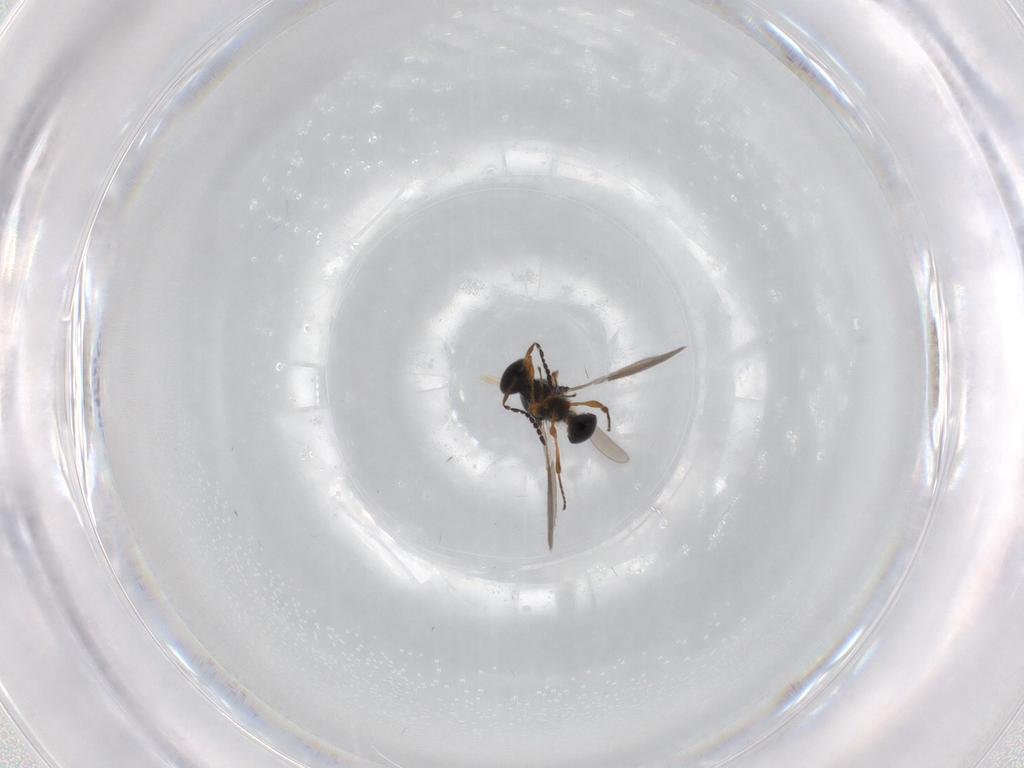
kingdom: Animalia
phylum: Arthropoda
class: Insecta
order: Hymenoptera
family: Platygastridae
